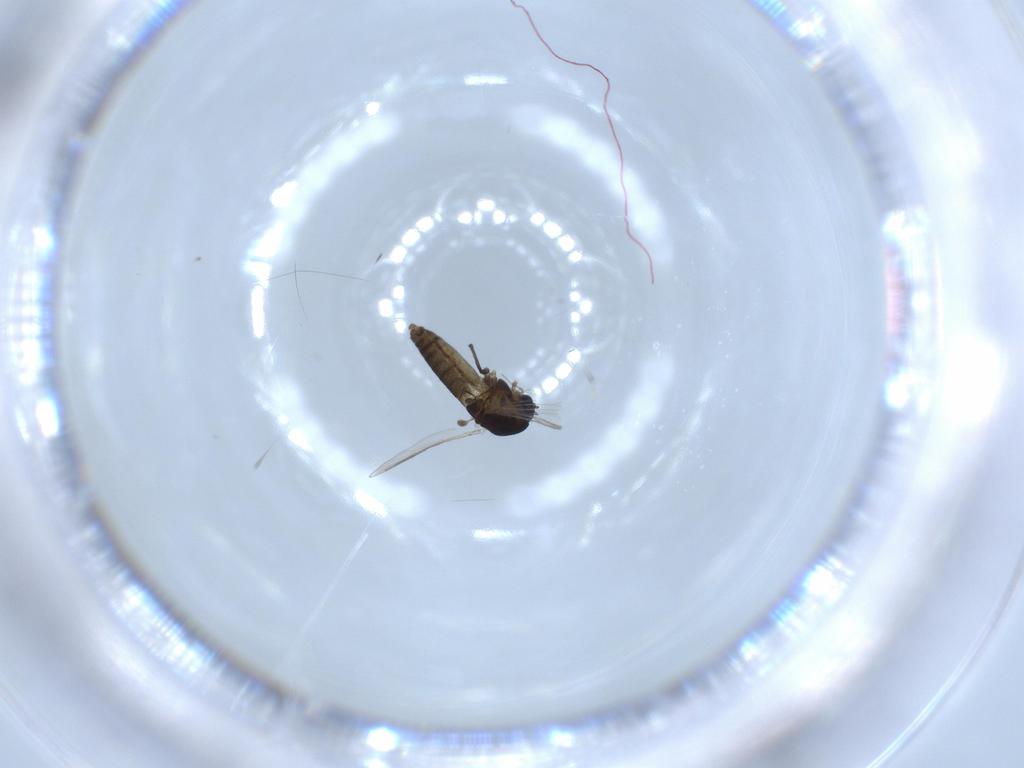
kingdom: Animalia
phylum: Arthropoda
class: Insecta
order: Diptera
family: Chironomidae
